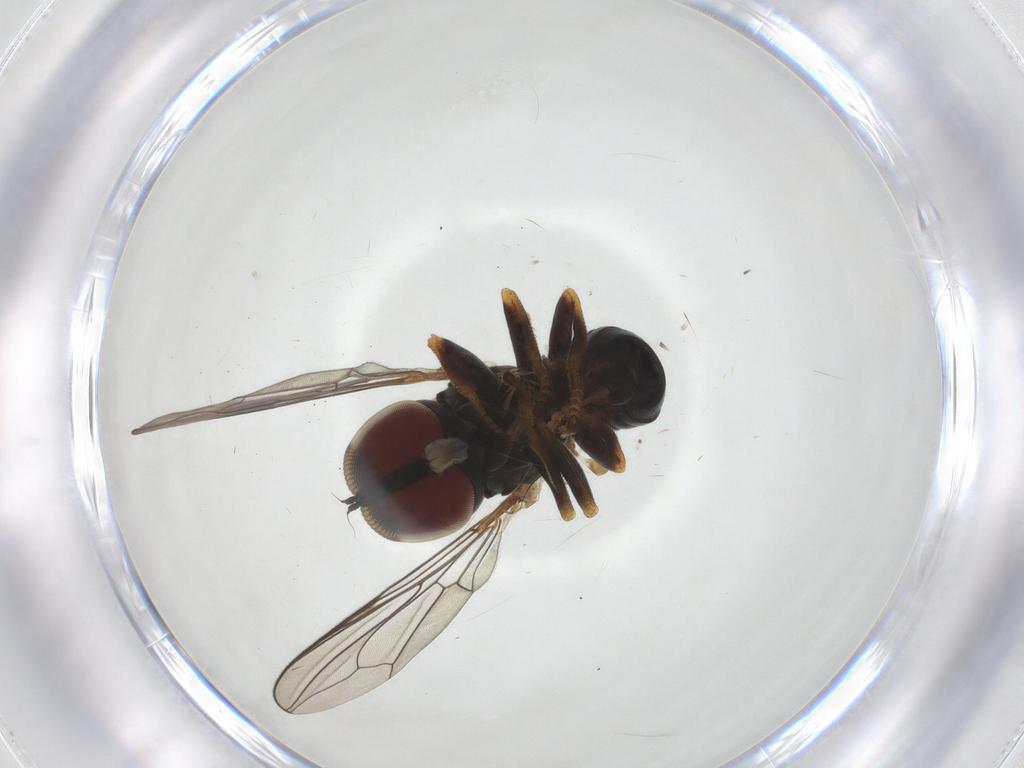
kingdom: Animalia
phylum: Arthropoda
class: Insecta
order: Diptera
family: Pipunculidae
